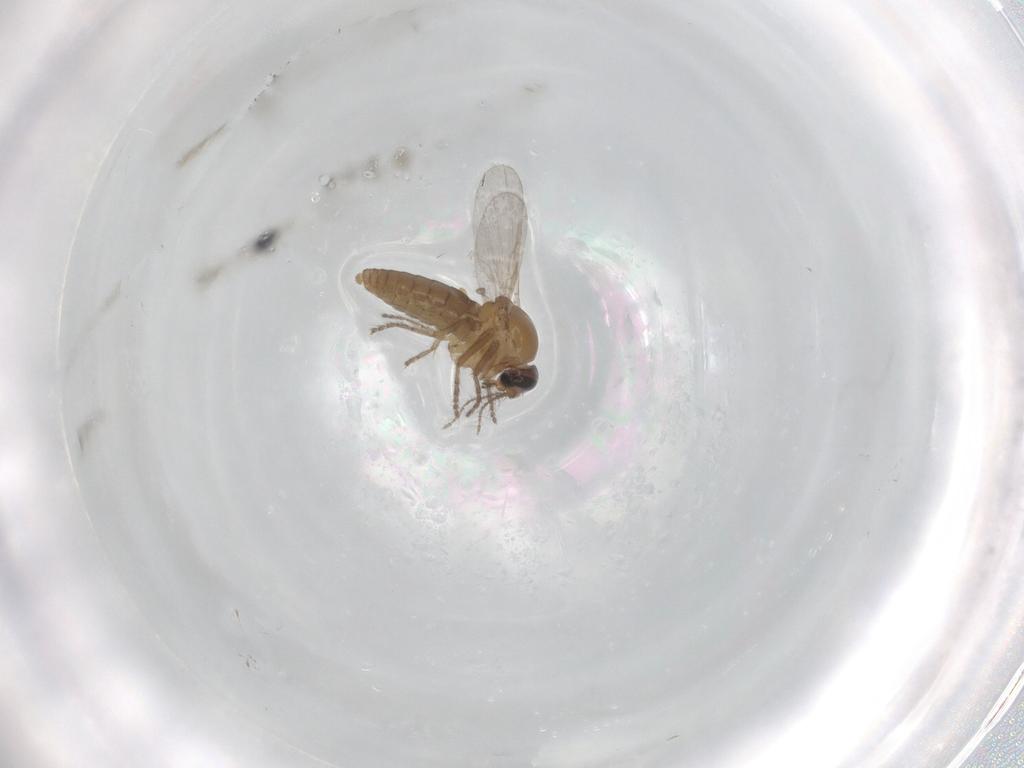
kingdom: Animalia
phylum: Arthropoda
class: Insecta
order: Diptera
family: Ceratopogonidae
